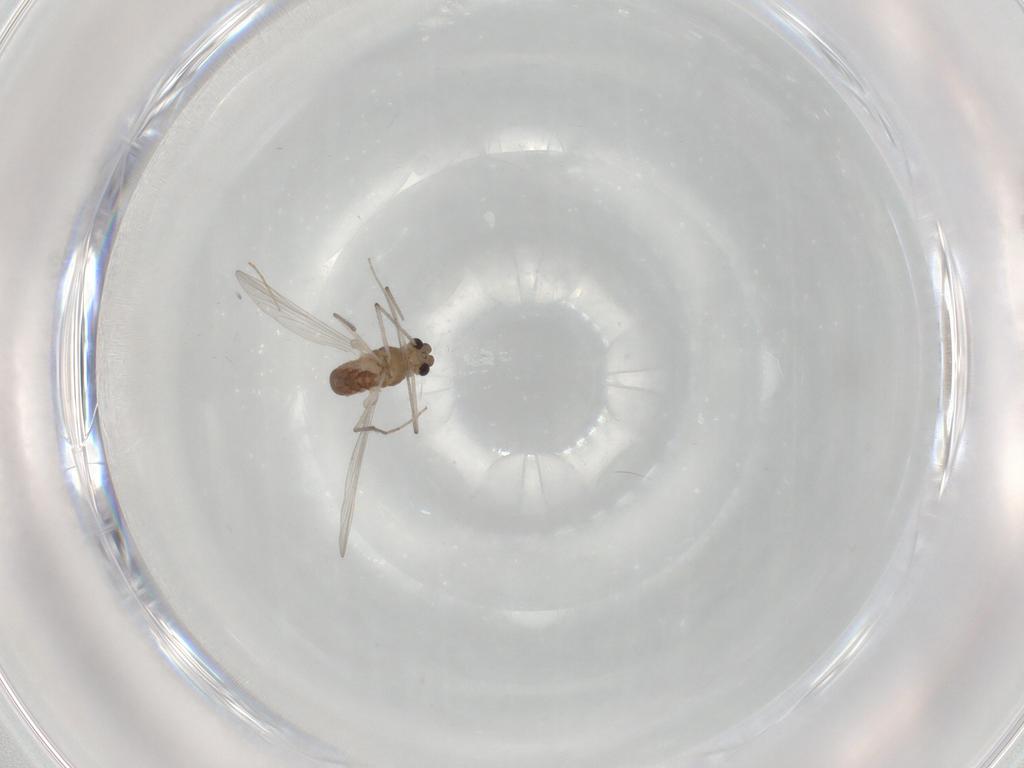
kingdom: Animalia
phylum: Arthropoda
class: Insecta
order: Diptera
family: Chironomidae
